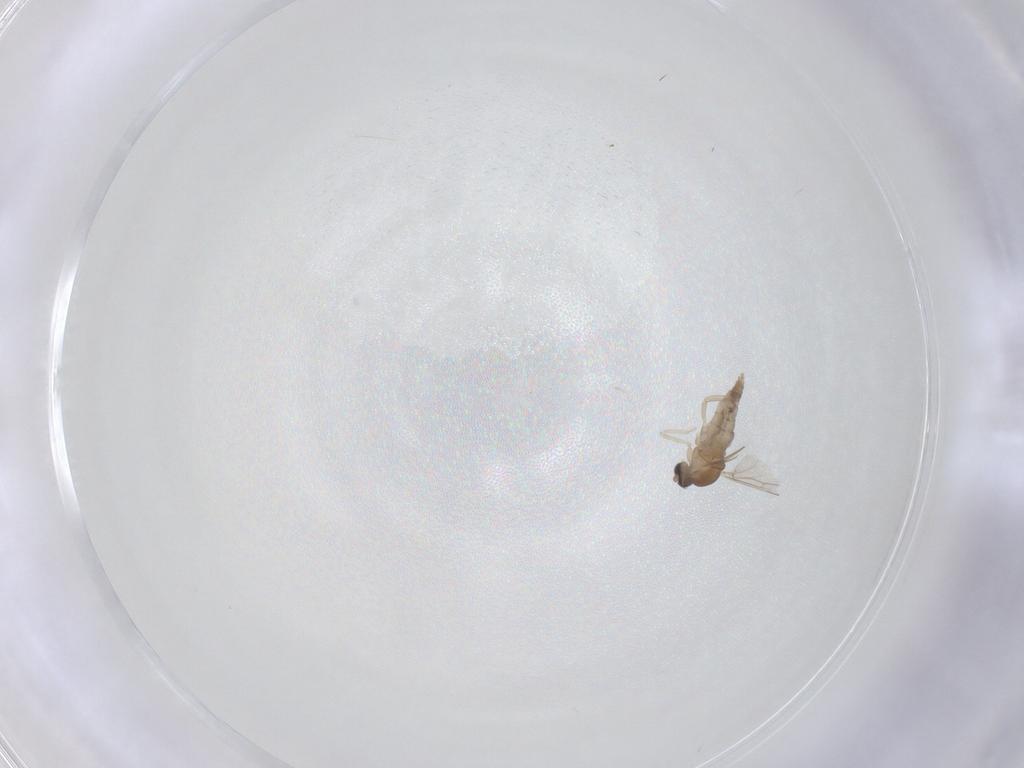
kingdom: Animalia
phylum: Arthropoda
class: Insecta
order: Diptera
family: Cecidomyiidae
